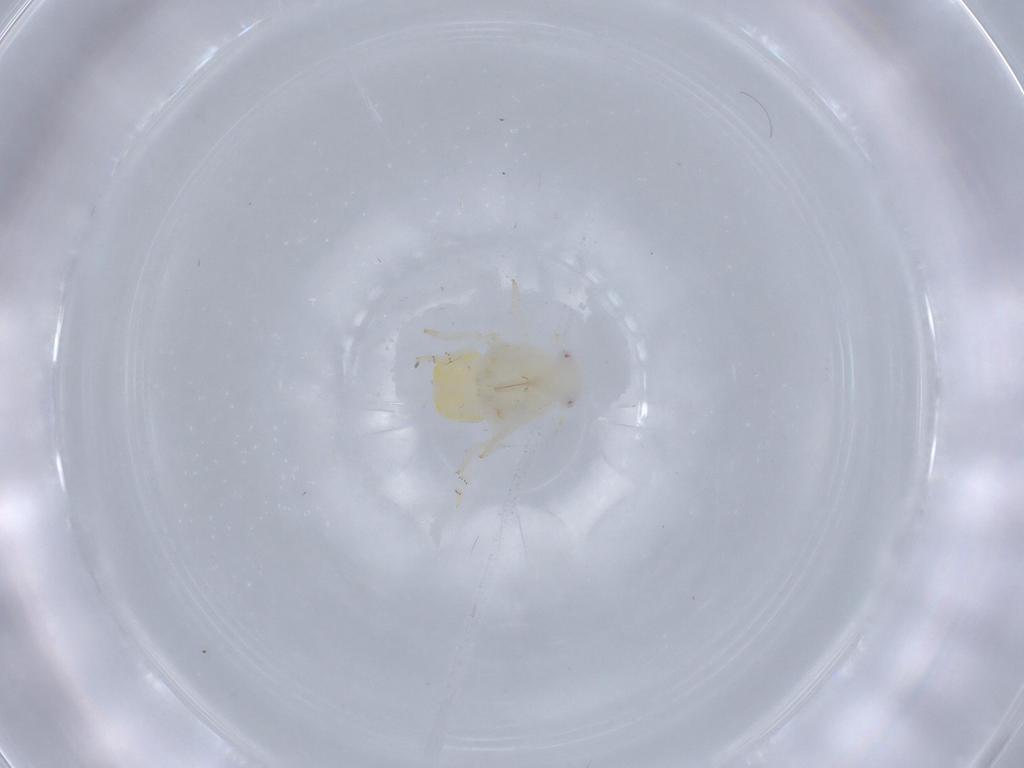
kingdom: Animalia
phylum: Arthropoda
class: Insecta
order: Hemiptera
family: Flatidae
